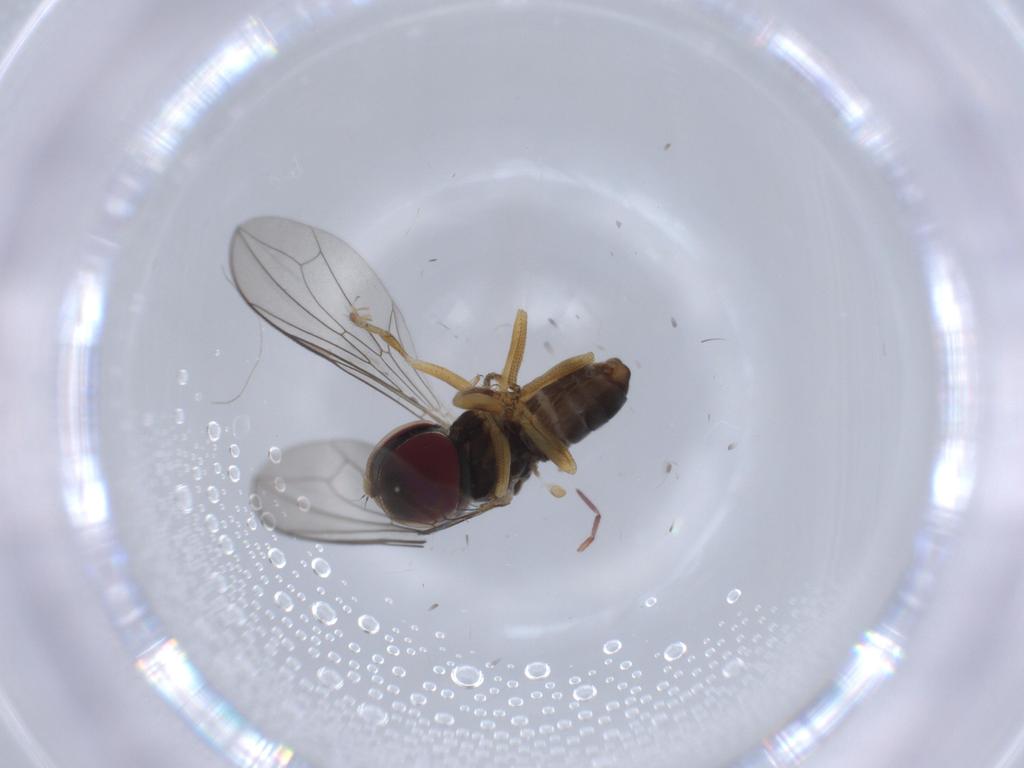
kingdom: Animalia
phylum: Arthropoda
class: Insecta
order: Diptera
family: Pipunculidae
